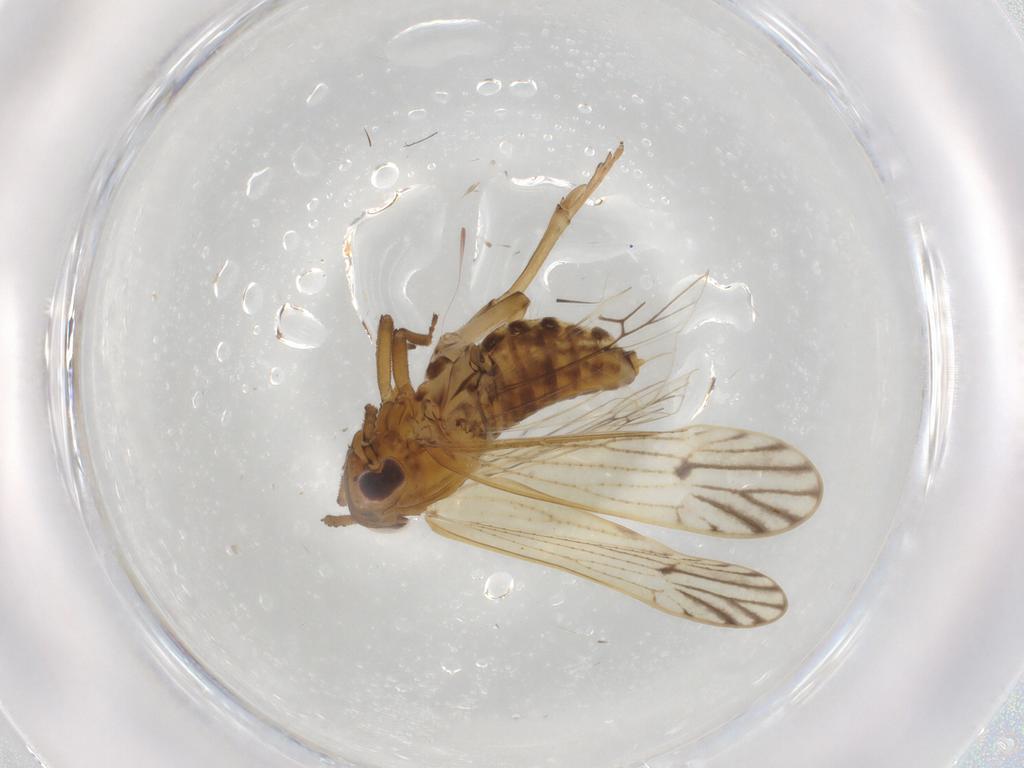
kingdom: Animalia
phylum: Arthropoda
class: Insecta
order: Hemiptera
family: Delphacidae
